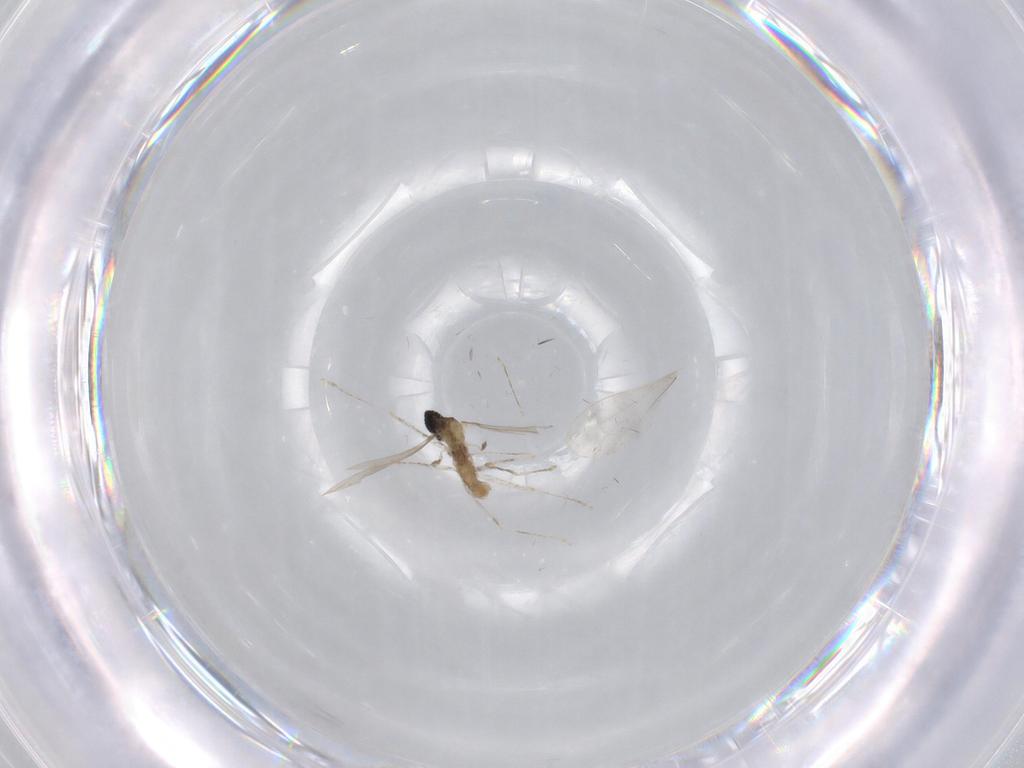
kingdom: Animalia
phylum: Arthropoda
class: Insecta
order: Diptera
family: Cecidomyiidae
